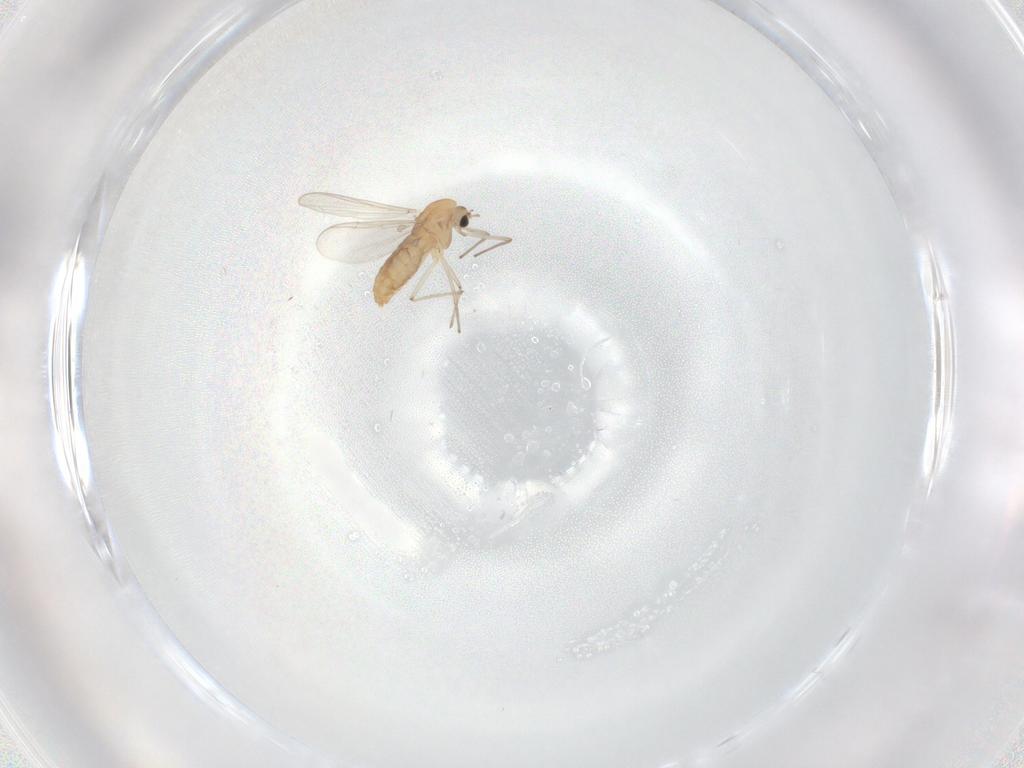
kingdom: Animalia
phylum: Arthropoda
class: Insecta
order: Diptera
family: Chironomidae
